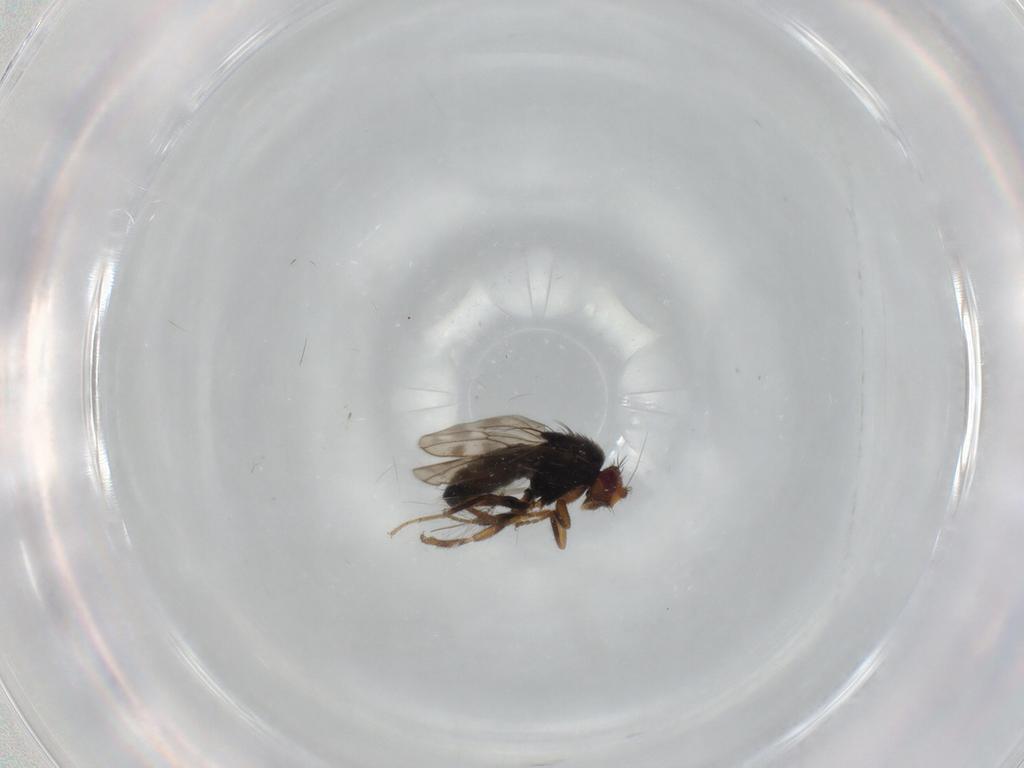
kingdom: Animalia
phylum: Arthropoda
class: Insecta
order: Diptera
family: Sphaeroceridae
